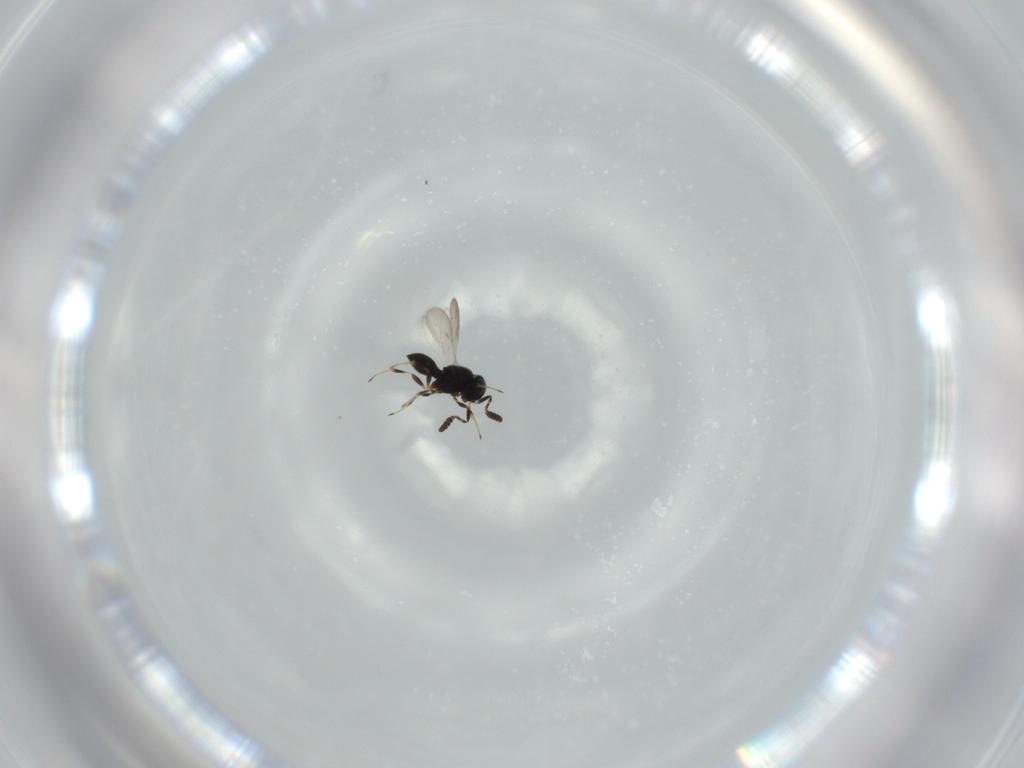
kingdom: Animalia
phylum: Arthropoda
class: Insecta
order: Hymenoptera
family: Scelionidae
